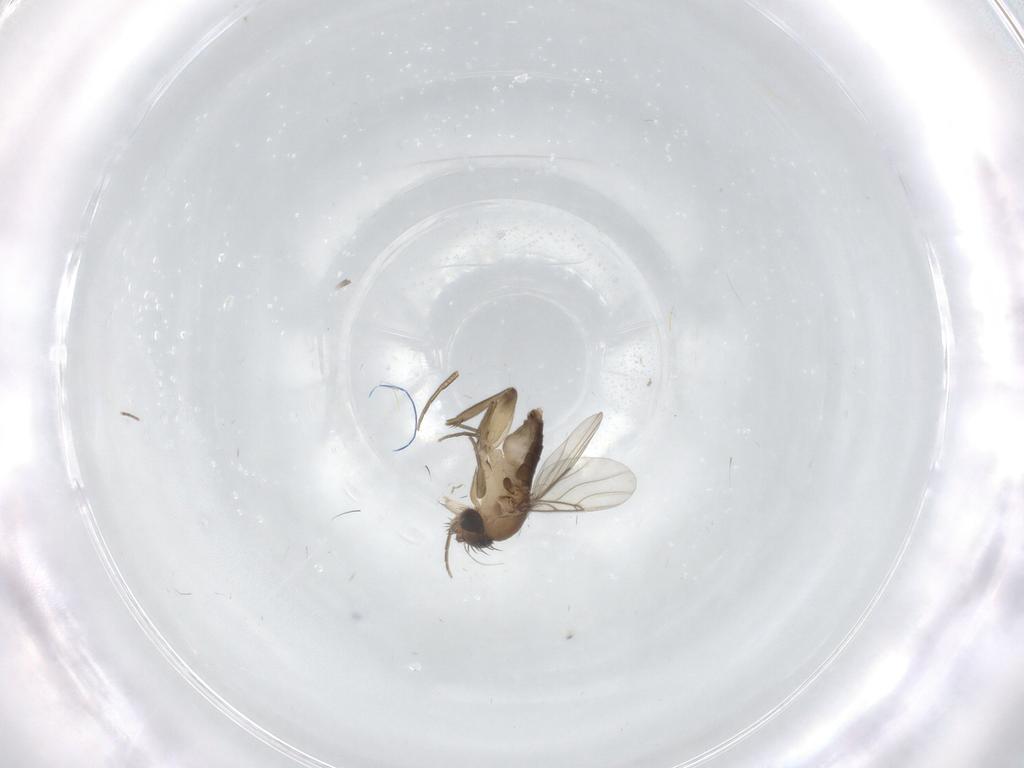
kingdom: Animalia
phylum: Arthropoda
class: Insecta
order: Diptera
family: Phoridae
